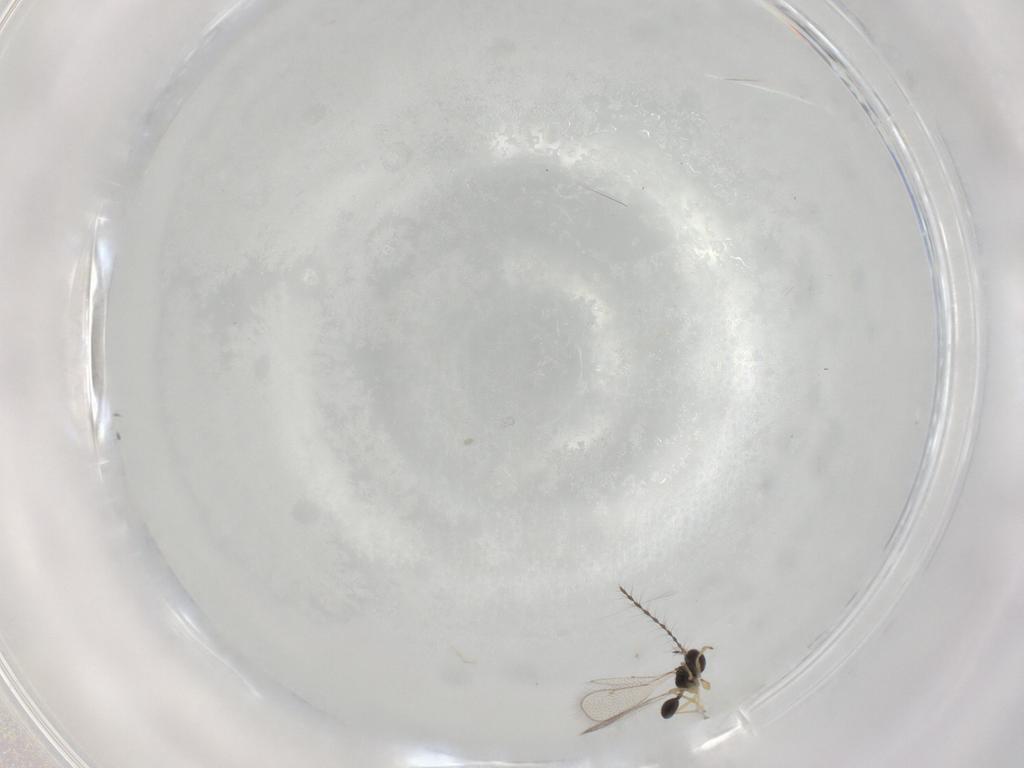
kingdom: Animalia
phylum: Arthropoda
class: Insecta
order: Hymenoptera
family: Diparidae
